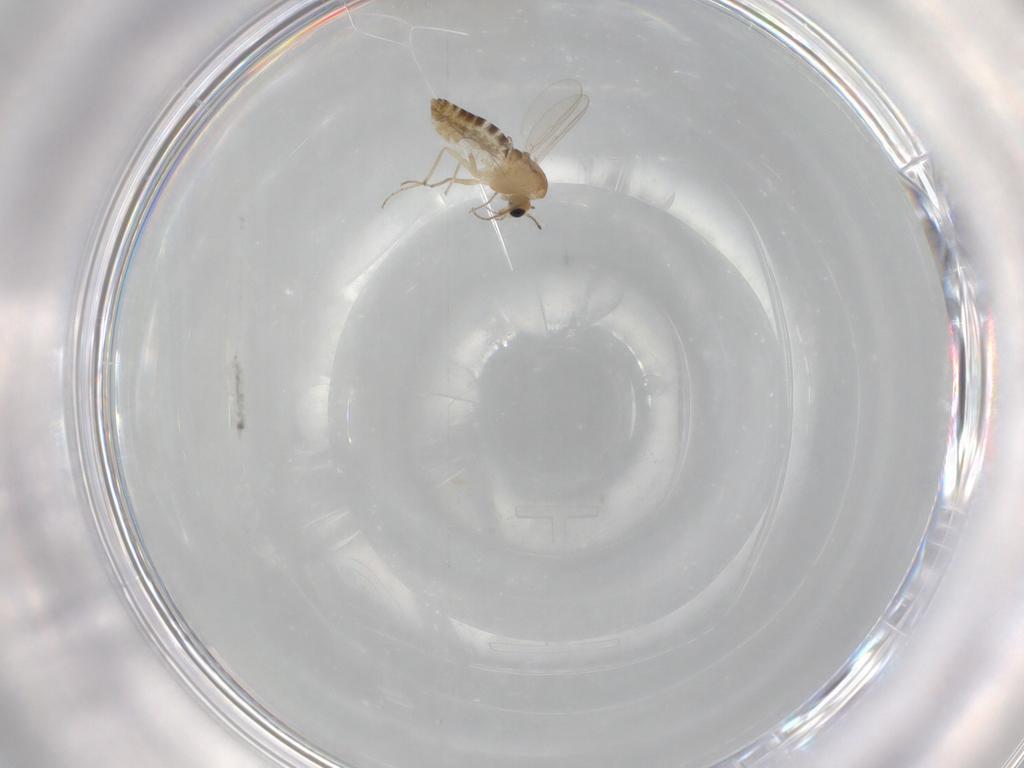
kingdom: Animalia
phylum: Arthropoda
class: Insecta
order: Diptera
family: Chironomidae
